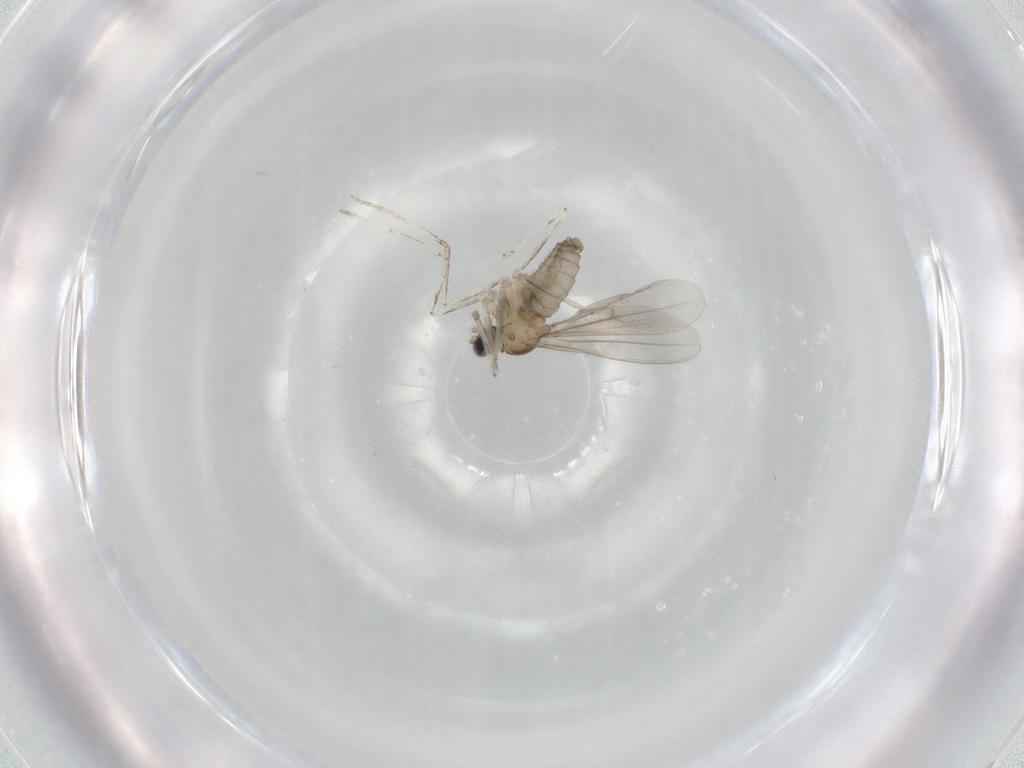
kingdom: Animalia
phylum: Arthropoda
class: Insecta
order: Diptera
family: Cecidomyiidae
